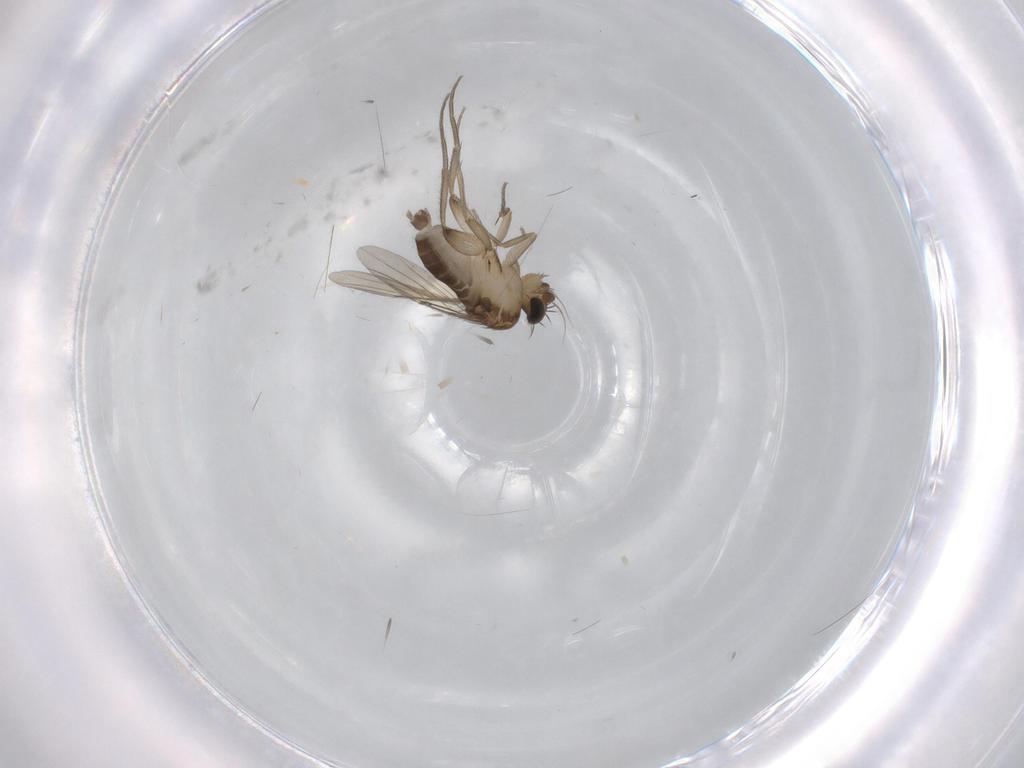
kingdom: Animalia
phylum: Arthropoda
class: Insecta
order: Diptera
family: Phoridae
